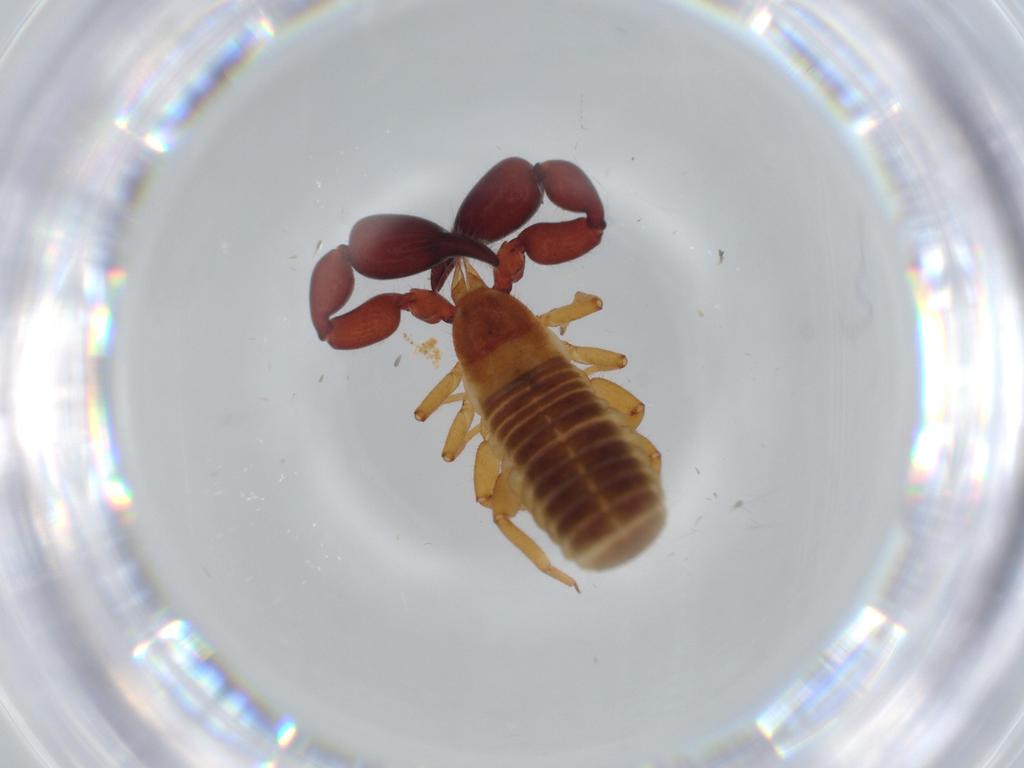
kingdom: Animalia
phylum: Arthropoda
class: Arachnida
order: Pseudoscorpiones
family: Chernetidae
